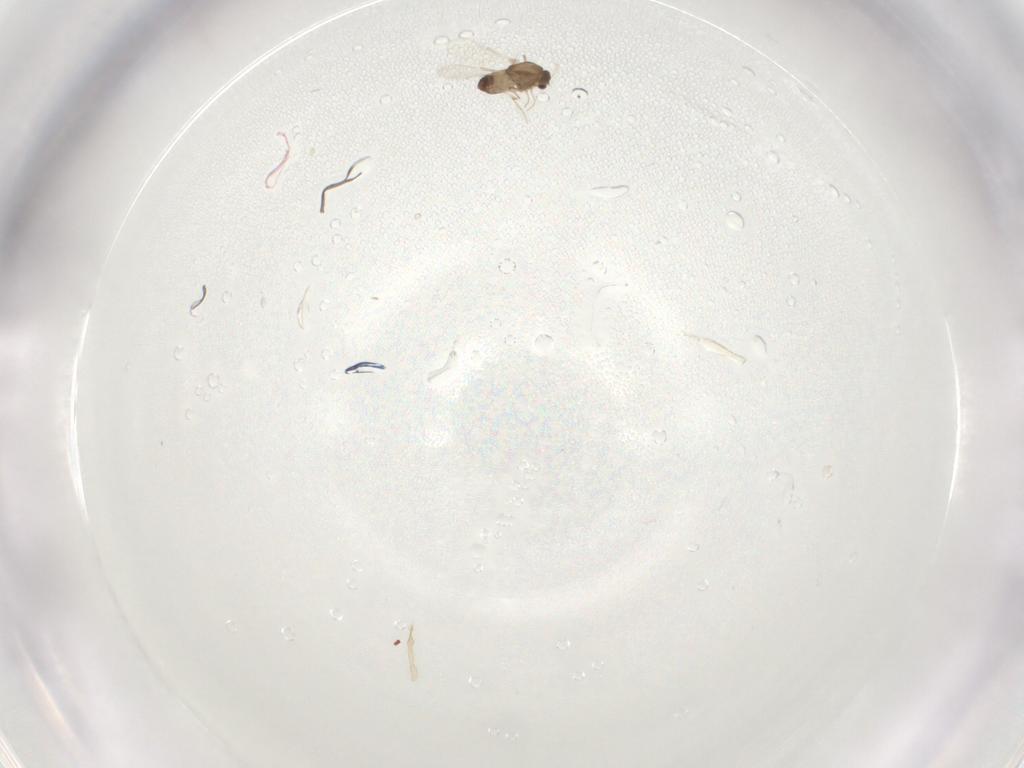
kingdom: Animalia
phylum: Arthropoda
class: Insecta
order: Diptera
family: Chironomidae
